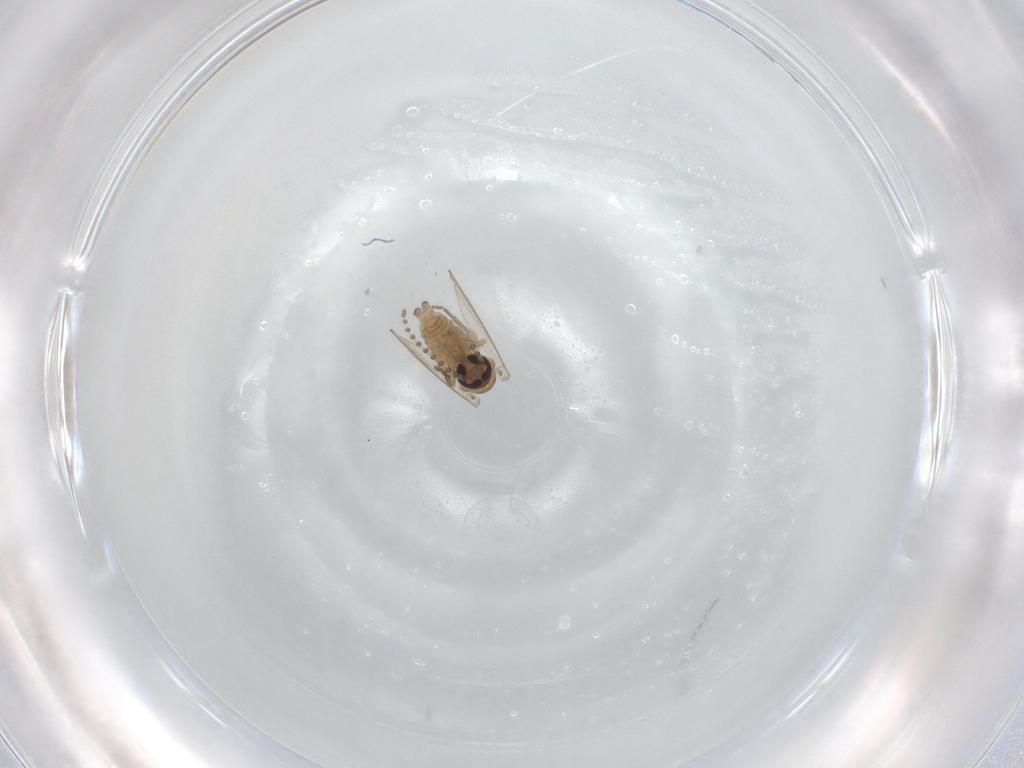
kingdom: Animalia
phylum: Arthropoda
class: Insecta
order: Diptera
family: Psychodidae
